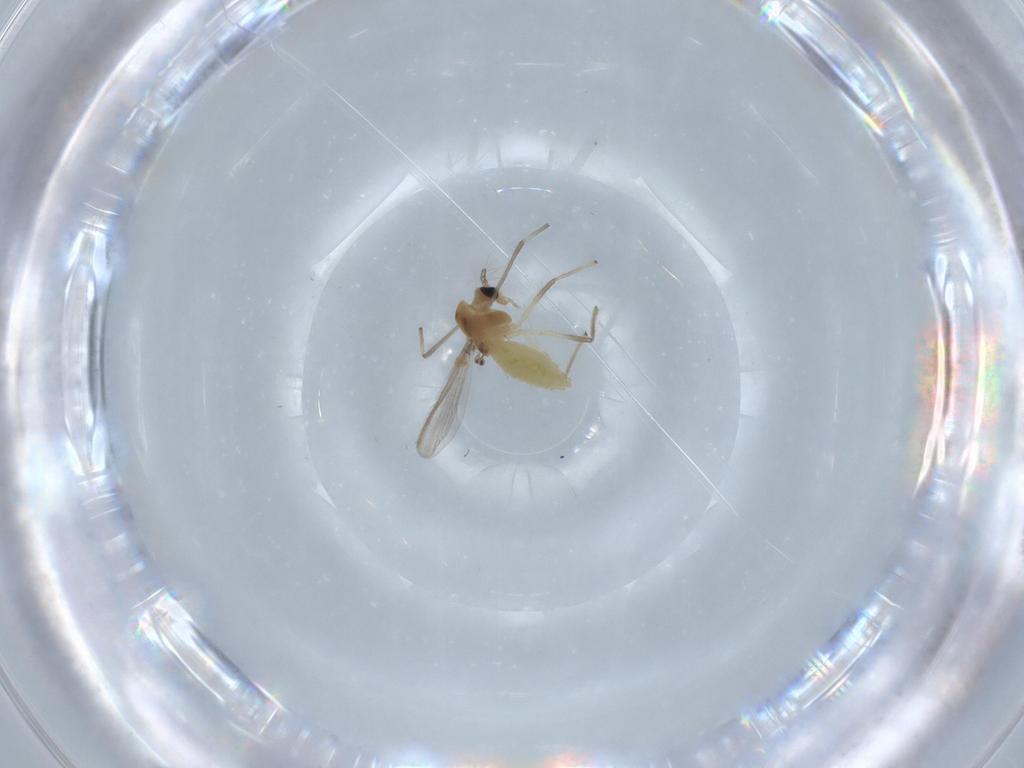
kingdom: Animalia
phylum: Arthropoda
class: Insecta
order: Diptera
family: Chironomidae
